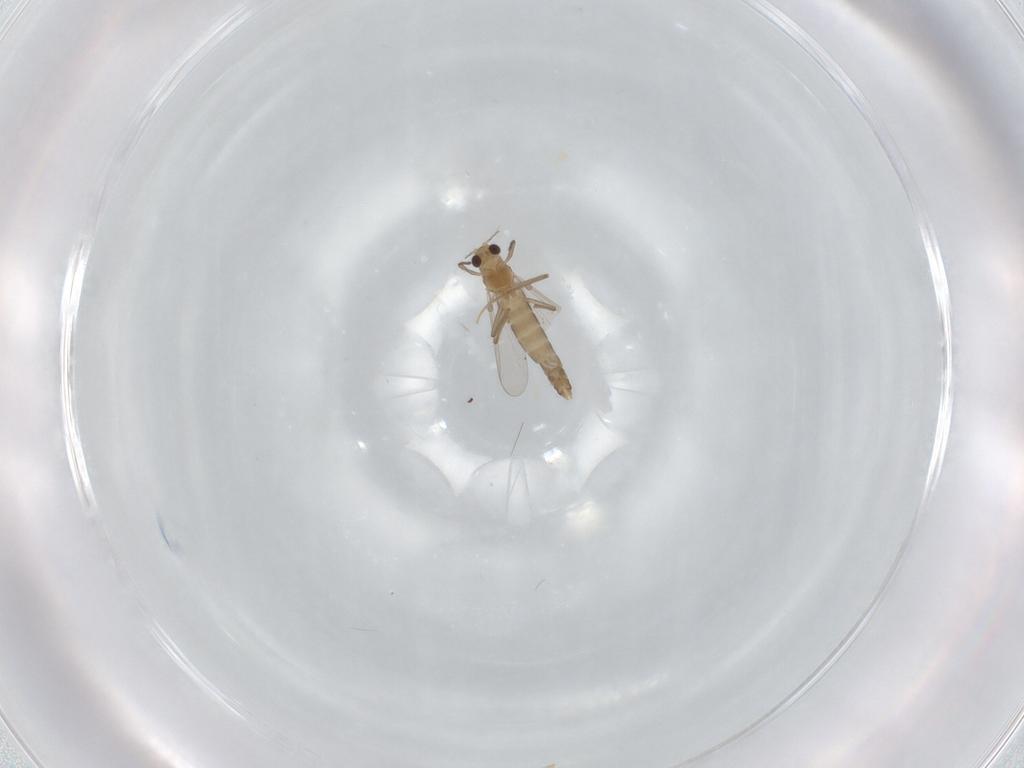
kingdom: Animalia
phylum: Arthropoda
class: Insecta
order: Diptera
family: Chironomidae
